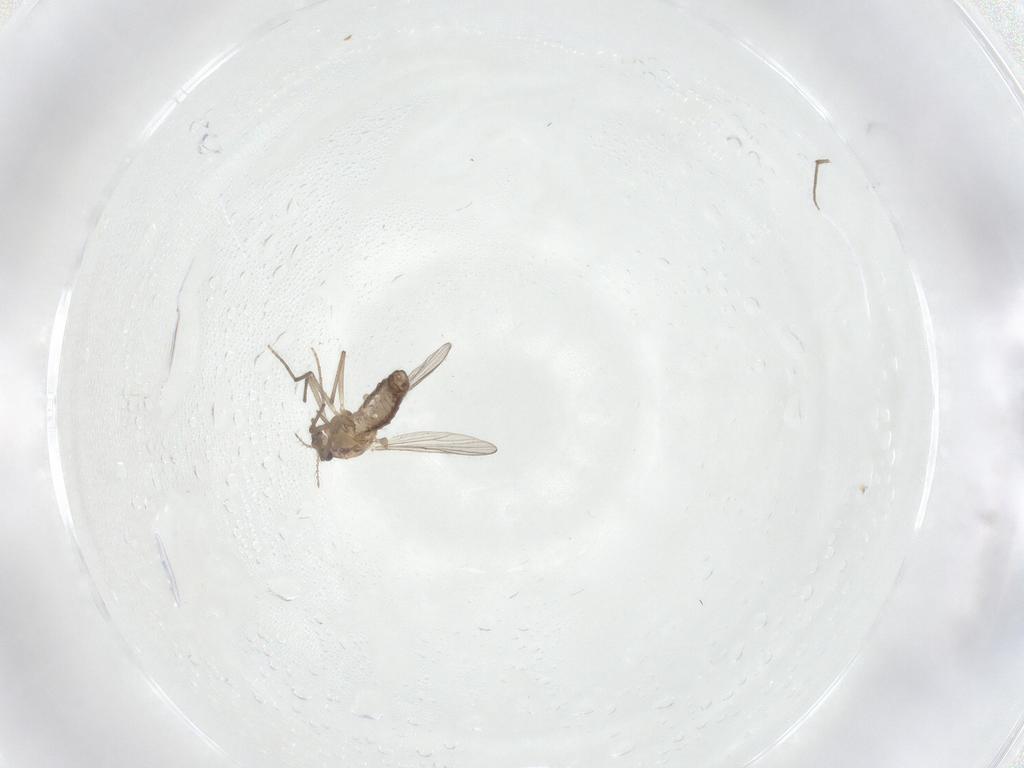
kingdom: Animalia
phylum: Arthropoda
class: Insecta
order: Diptera
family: Chironomidae
